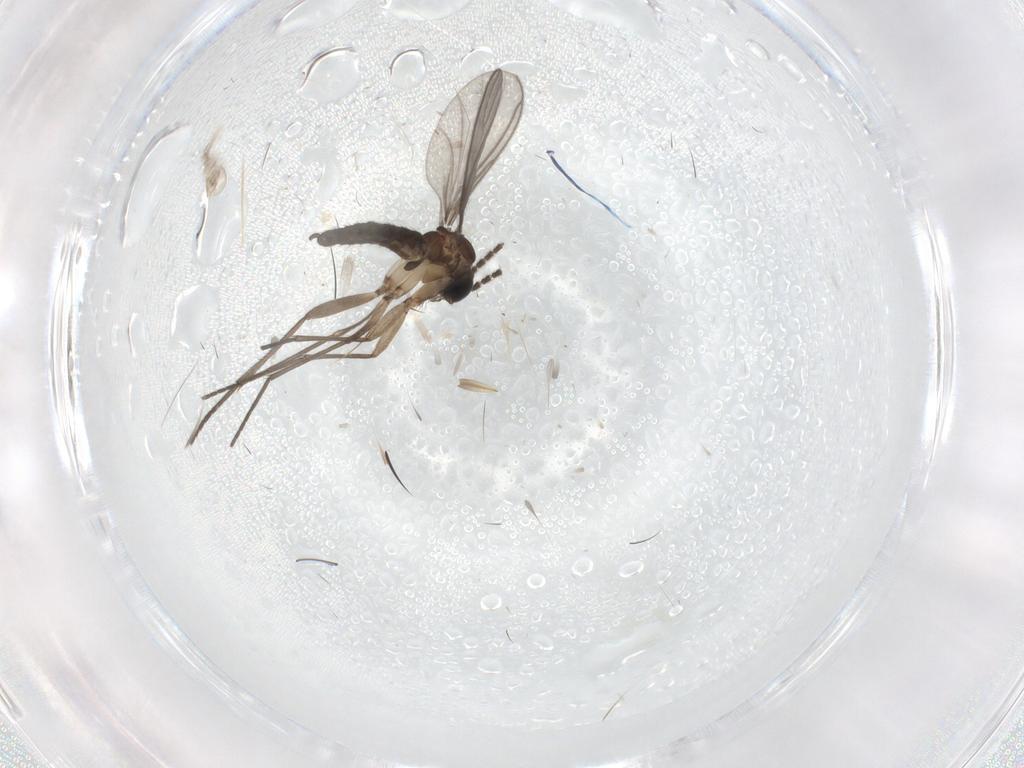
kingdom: Animalia
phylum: Arthropoda
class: Insecta
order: Diptera
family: Sciaridae
